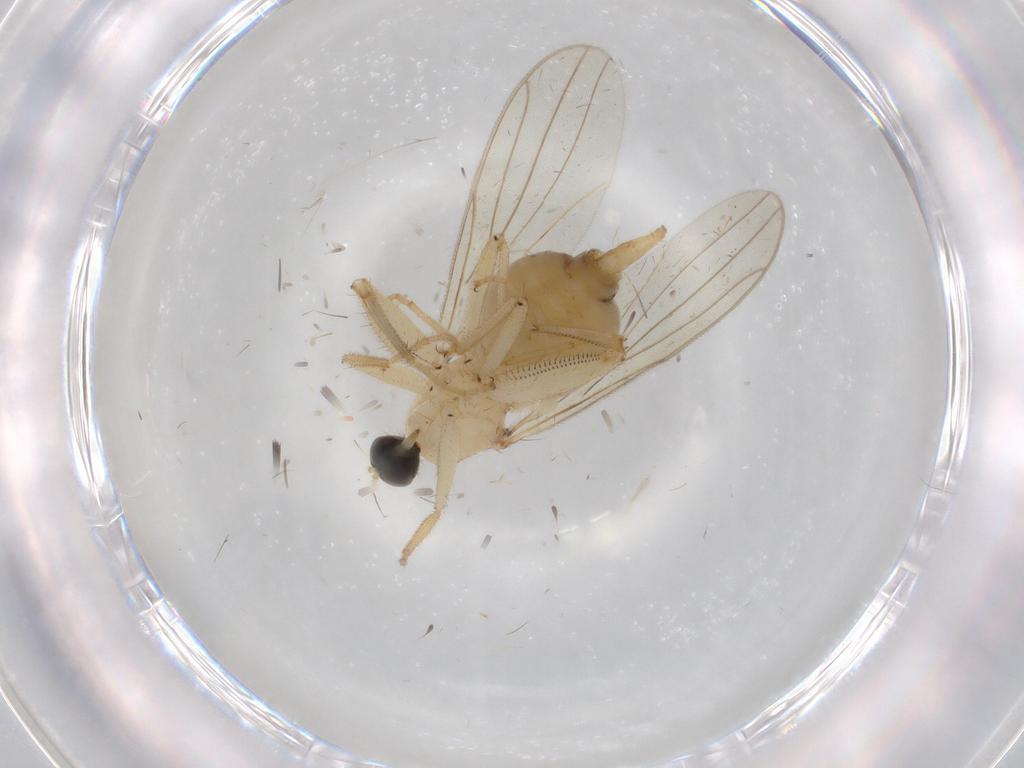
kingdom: Animalia
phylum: Arthropoda
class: Insecta
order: Diptera
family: Hybotidae
